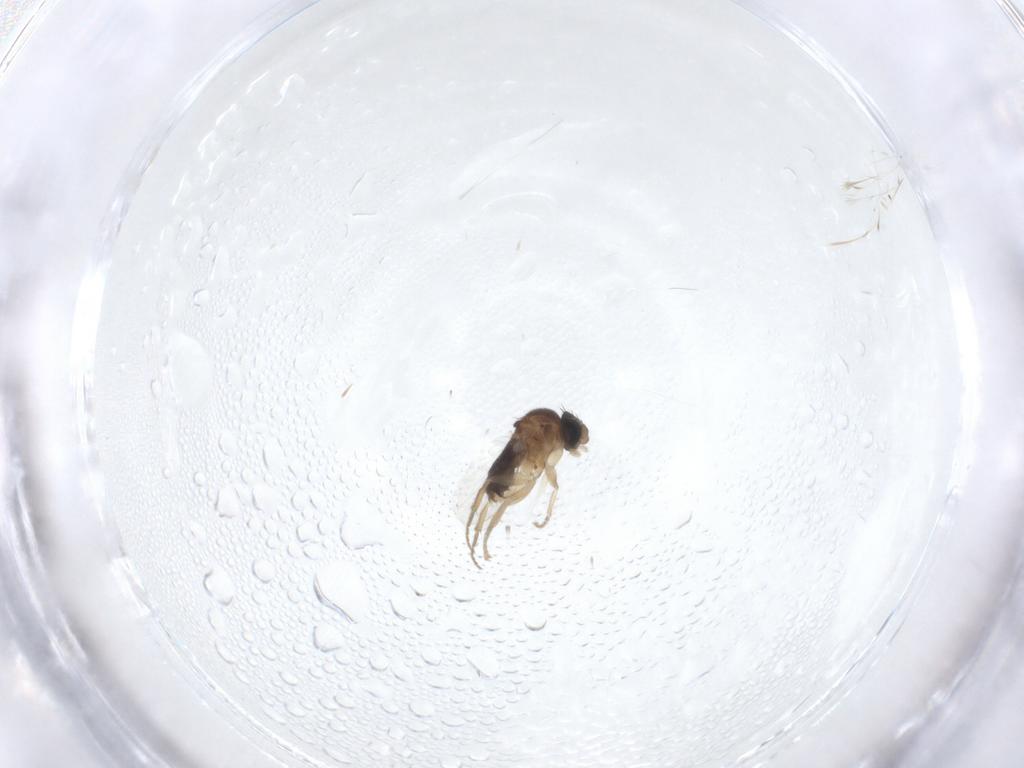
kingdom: Animalia
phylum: Arthropoda
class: Insecta
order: Diptera
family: Phoridae
